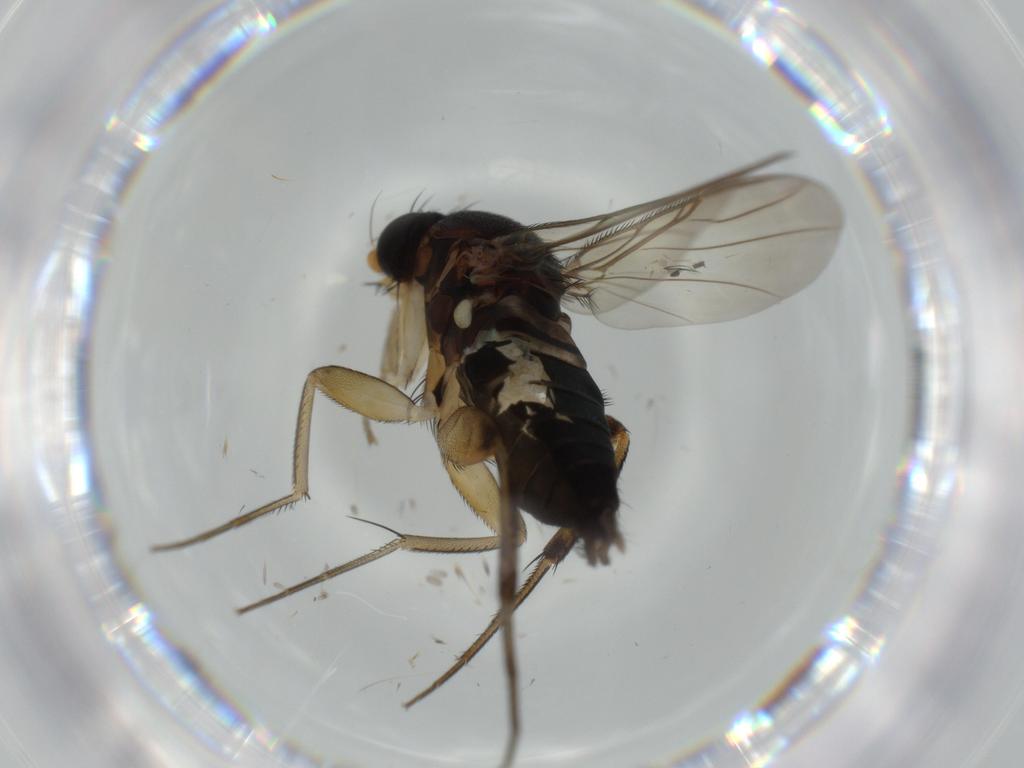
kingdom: Animalia
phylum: Arthropoda
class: Insecta
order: Diptera
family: Phoridae
